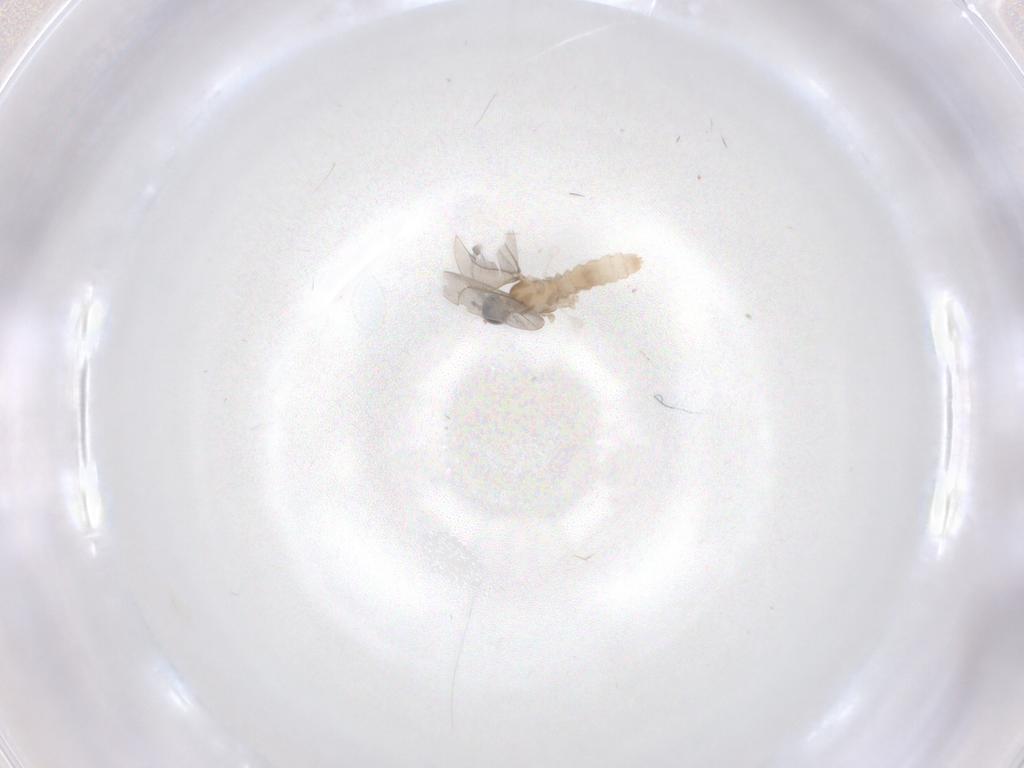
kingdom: Animalia
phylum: Arthropoda
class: Insecta
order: Diptera
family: Cecidomyiidae
